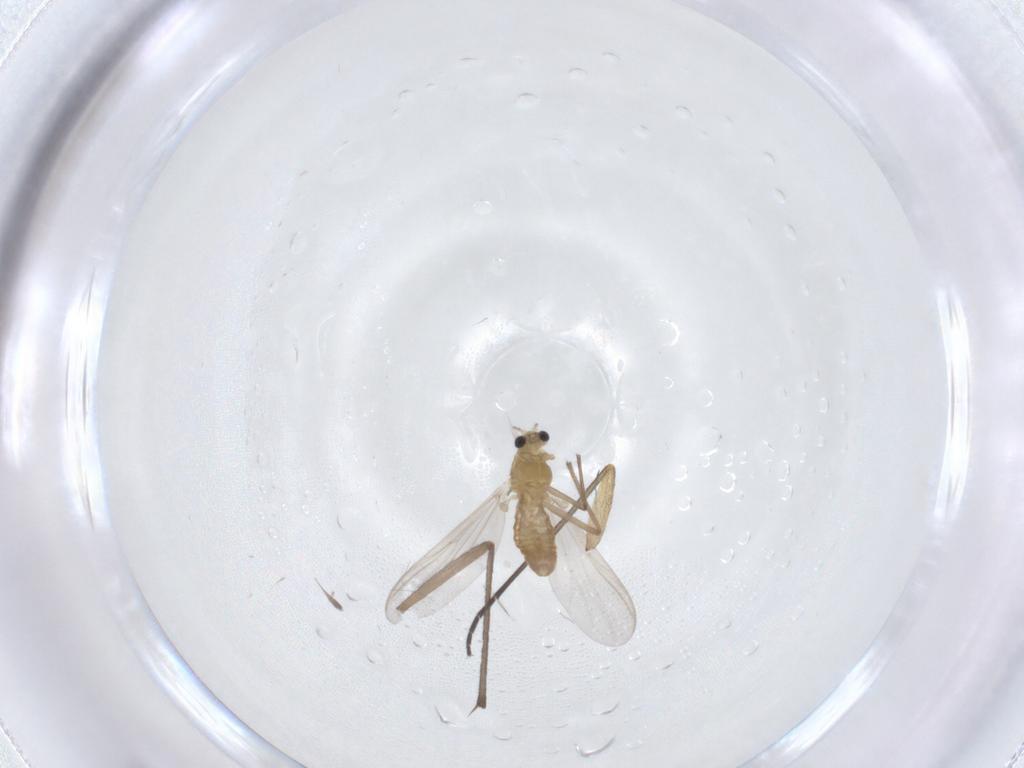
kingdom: Animalia
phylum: Arthropoda
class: Insecta
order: Diptera
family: Chironomidae
